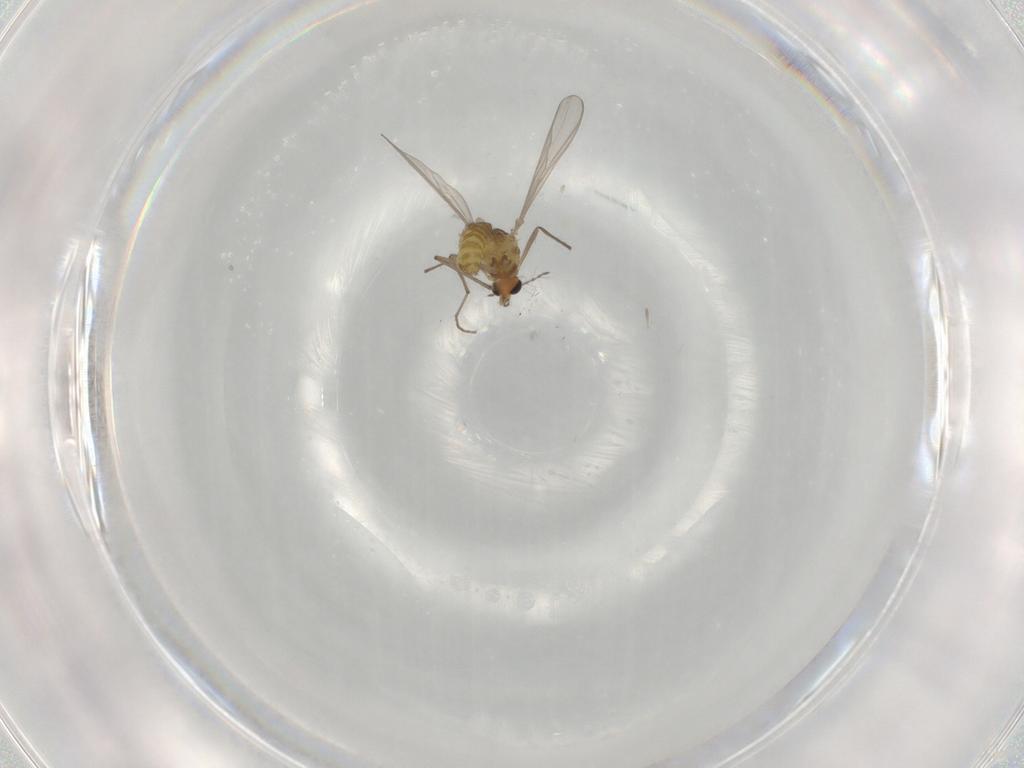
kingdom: Animalia
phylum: Arthropoda
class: Insecta
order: Diptera
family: Chironomidae
